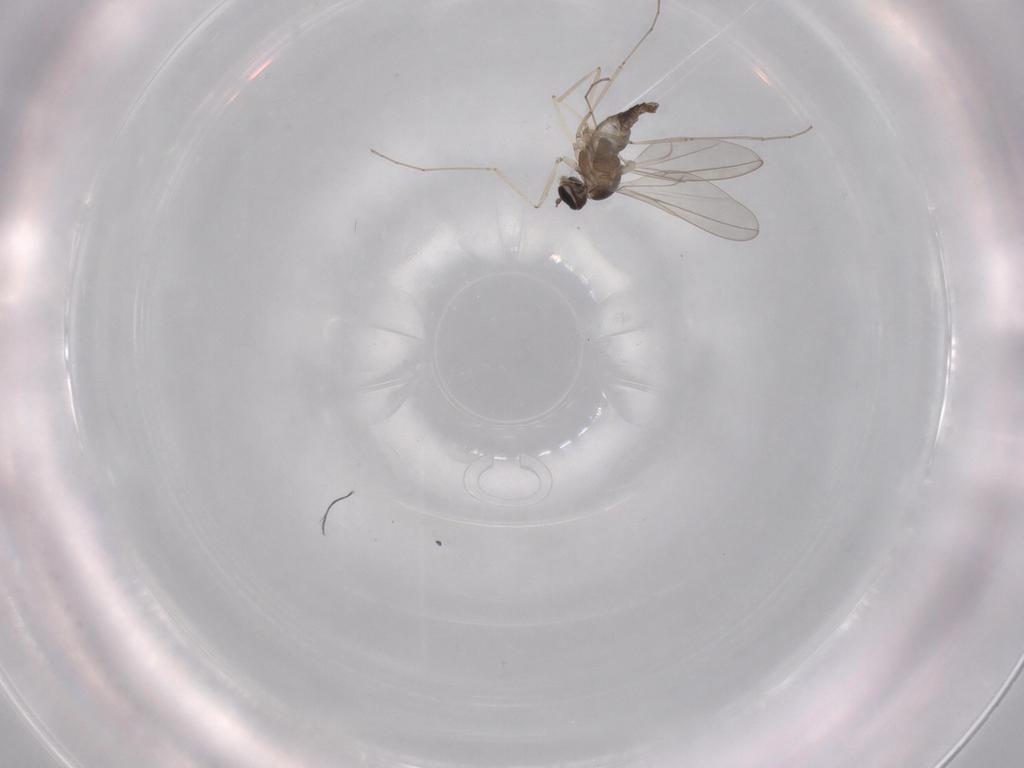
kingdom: Animalia
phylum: Arthropoda
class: Insecta
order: Diptera
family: Cecidomyiidae
